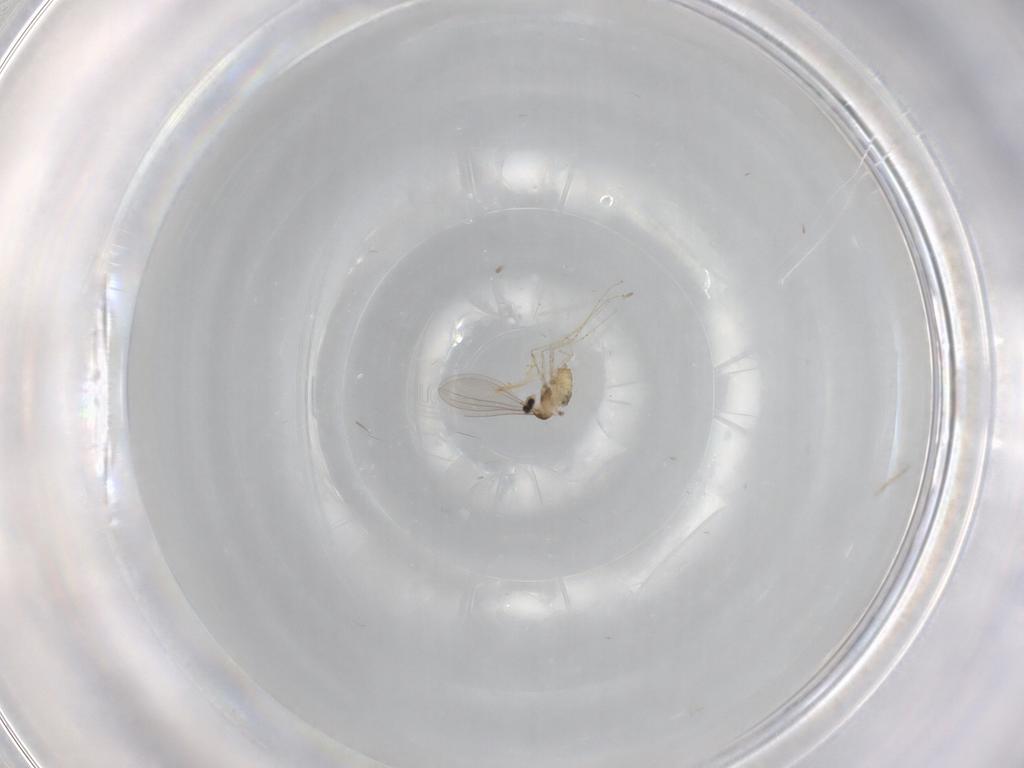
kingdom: Animalia
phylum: Arthropoda
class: Insecta
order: Diptera
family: Cecidomyiidae
